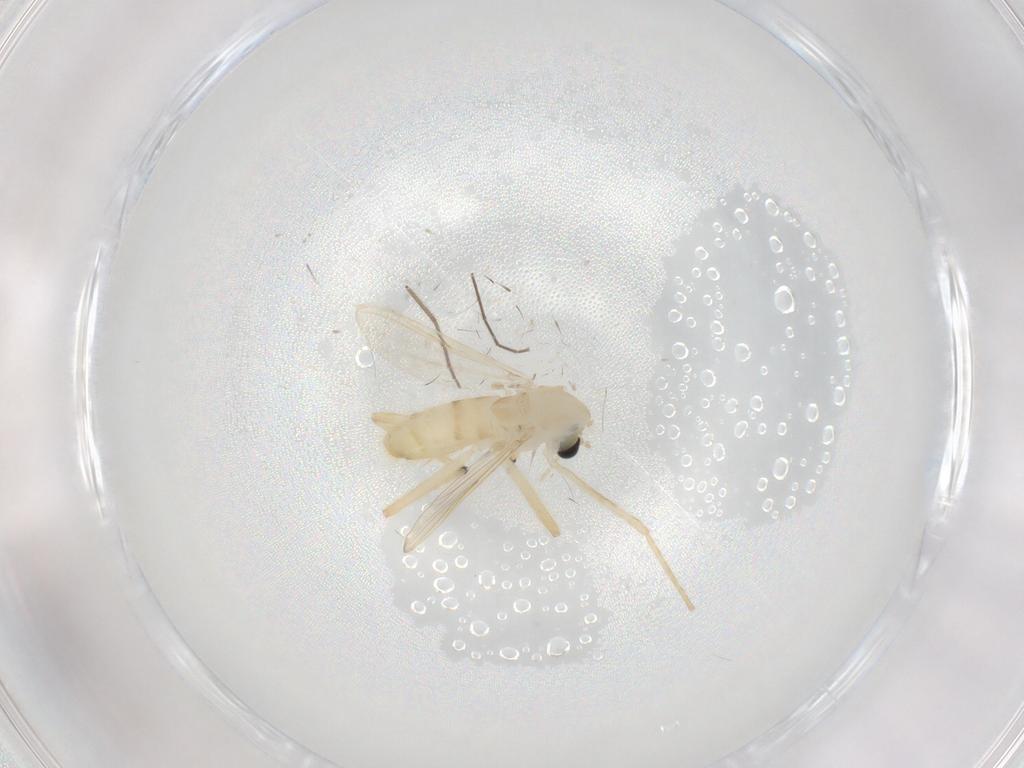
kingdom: Animalia
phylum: Arthropoda
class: Insecta
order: Diptera
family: Chironomidae
